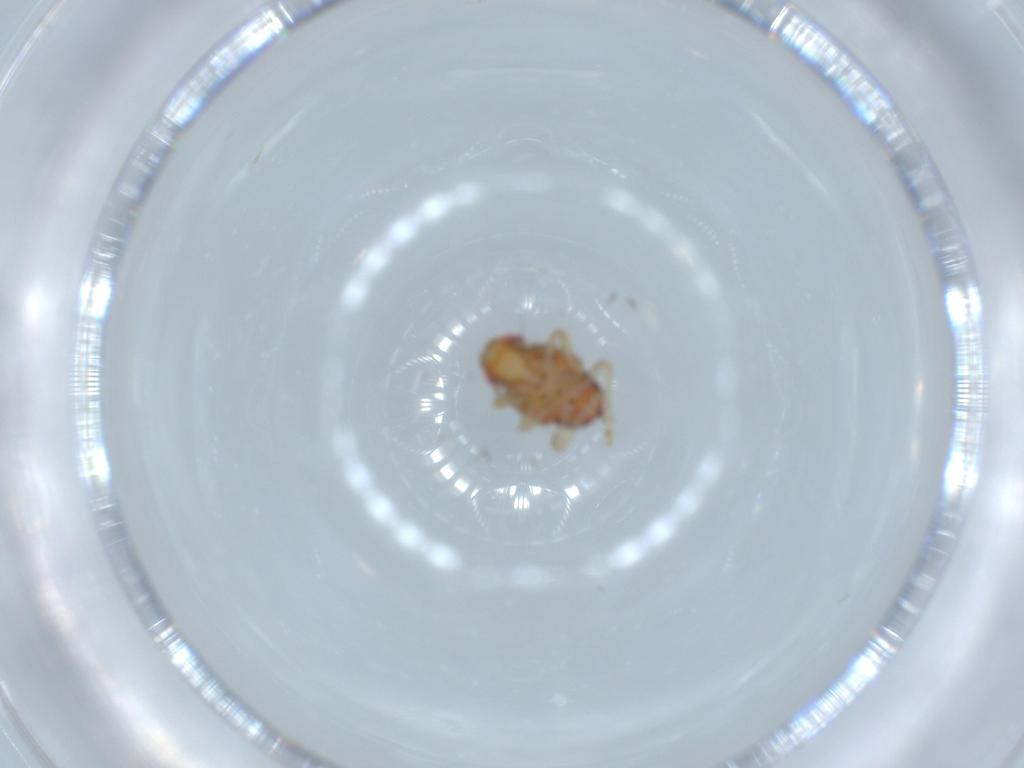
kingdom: Animalia
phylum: Arthropoda
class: Insecta
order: Hemiptera
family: Issidae
